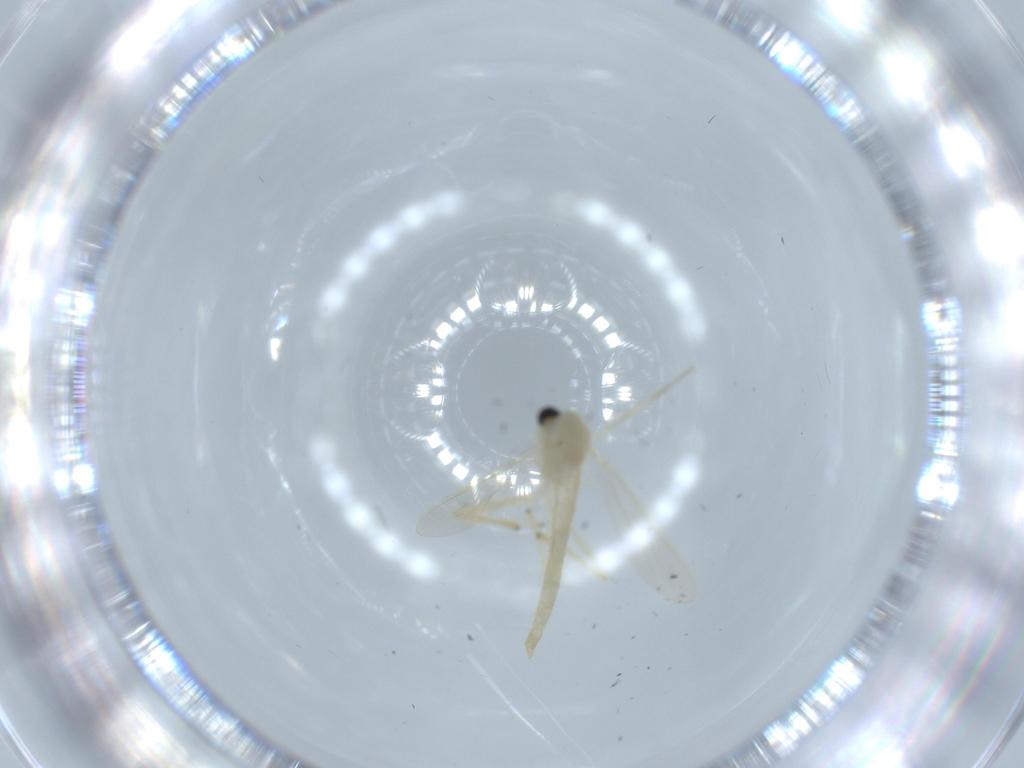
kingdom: Animalia
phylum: Arthropoda
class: Insecta
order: Diptera
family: Chironomidae
